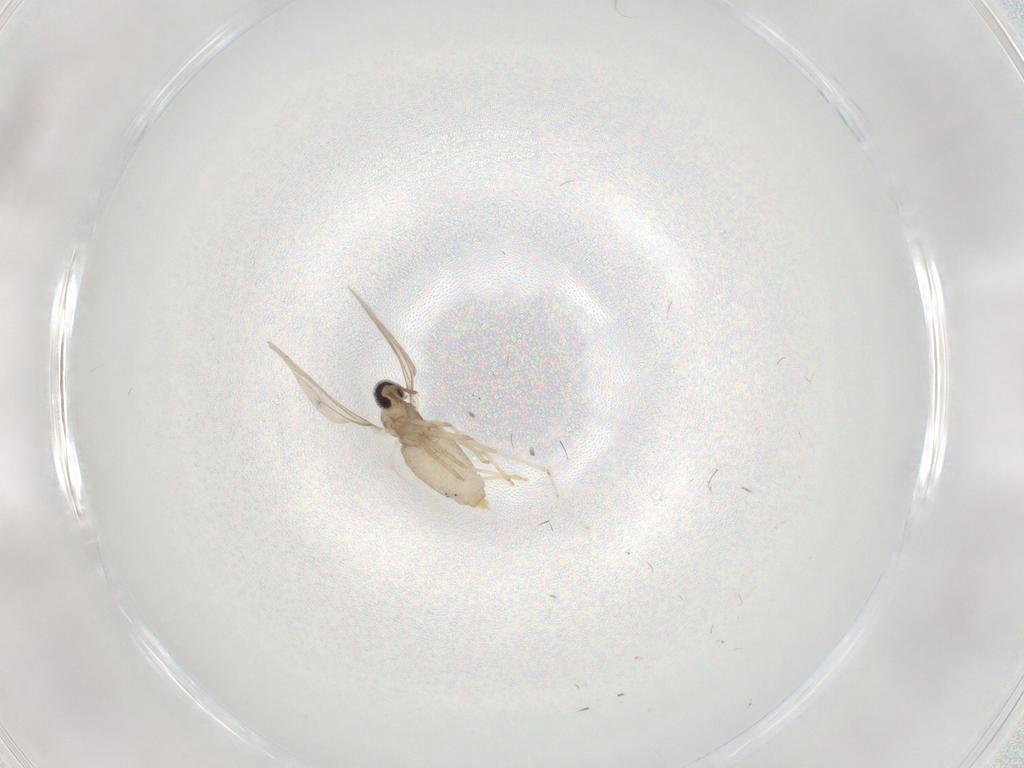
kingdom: Animalia
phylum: Arthropoda
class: Insecta
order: Diptera
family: Cecidomyiidae
